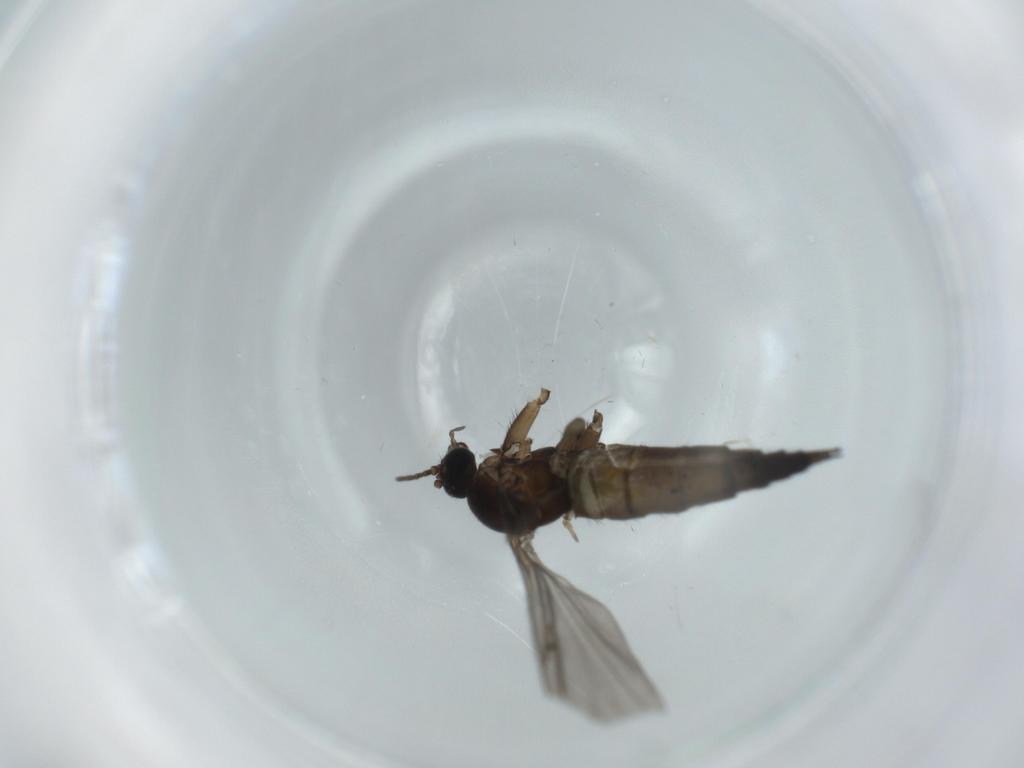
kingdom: Animalia
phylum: Arthropoda
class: Insecta
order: Diptera
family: Sciaridae
